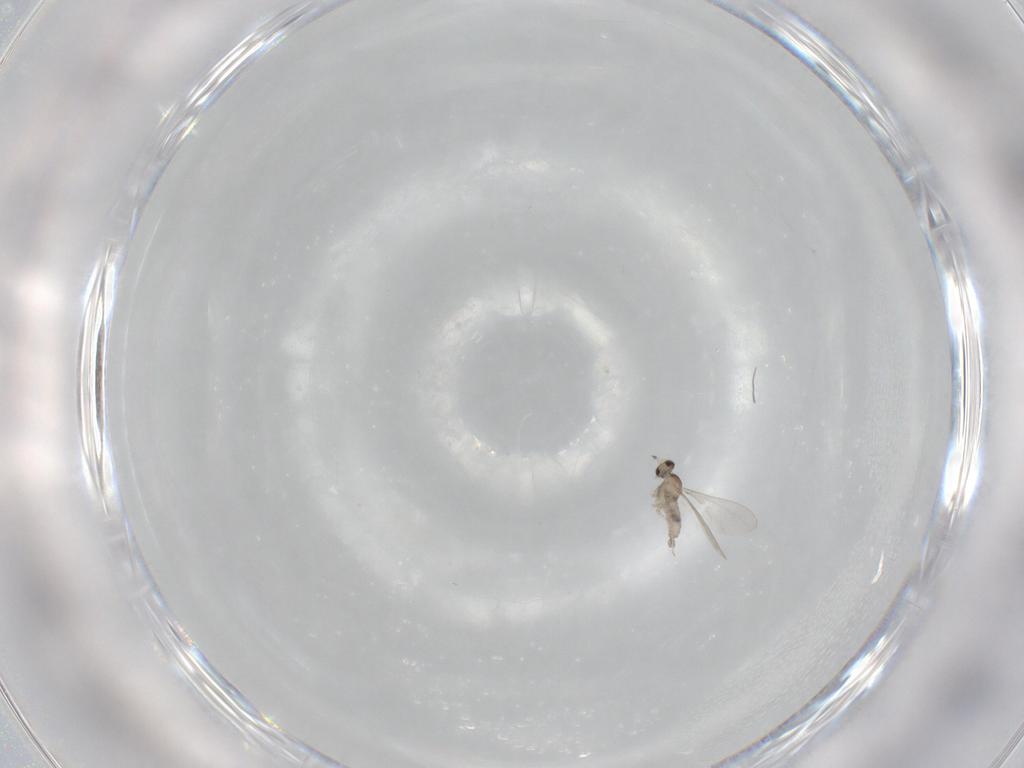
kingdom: Animalia
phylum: Arthropoda
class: Insecta
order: Diptera
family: Cecidomyiidae
